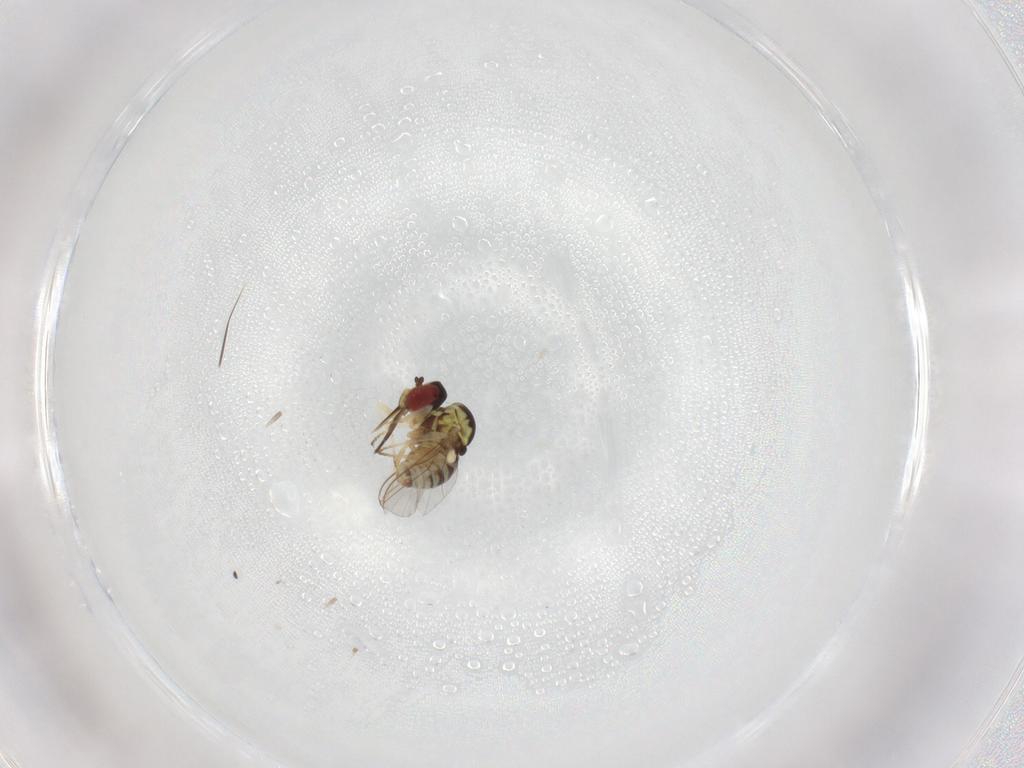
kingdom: Animalia
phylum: Arthropoda
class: Insecta
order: Diptera
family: Bombyliidae
